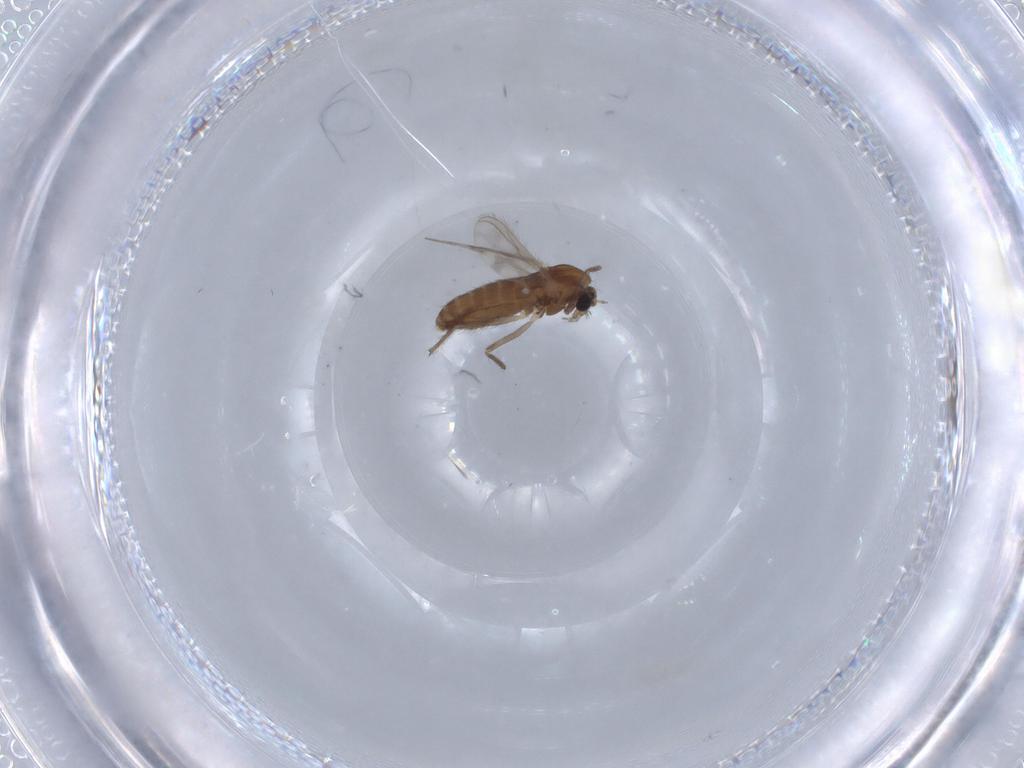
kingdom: Animalia
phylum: Arthropoda
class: Insecta
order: Diptera
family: Chironomidae
